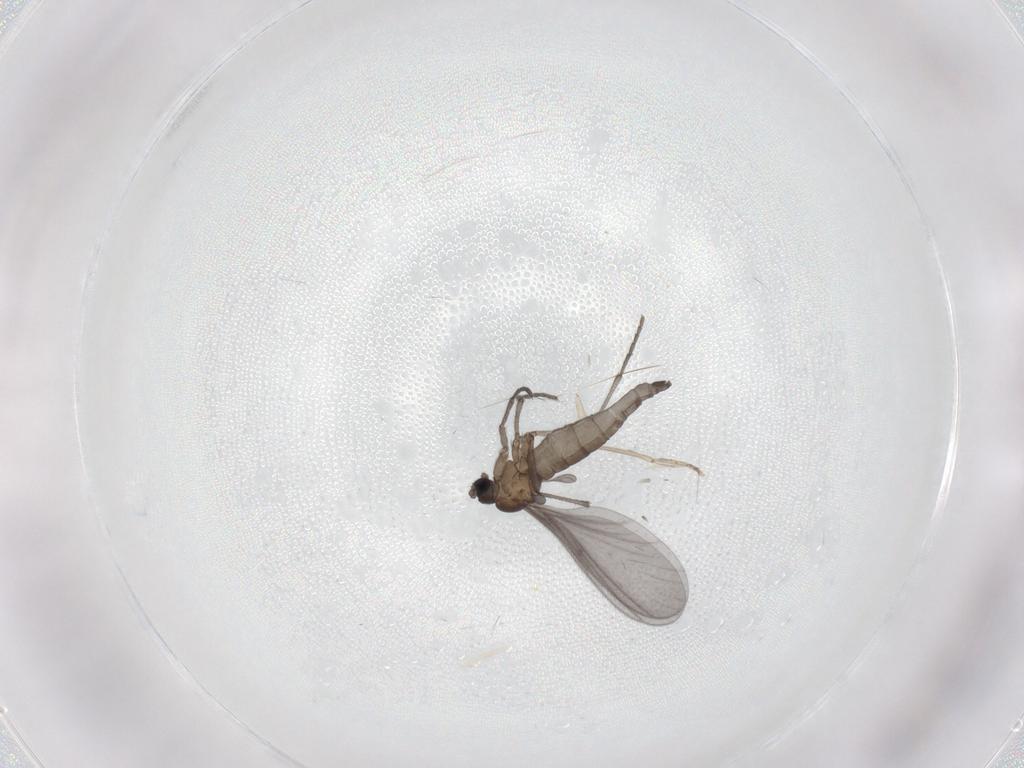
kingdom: Animalia
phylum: Arthropoda
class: Insecta
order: Diptera
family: Sciaridae
